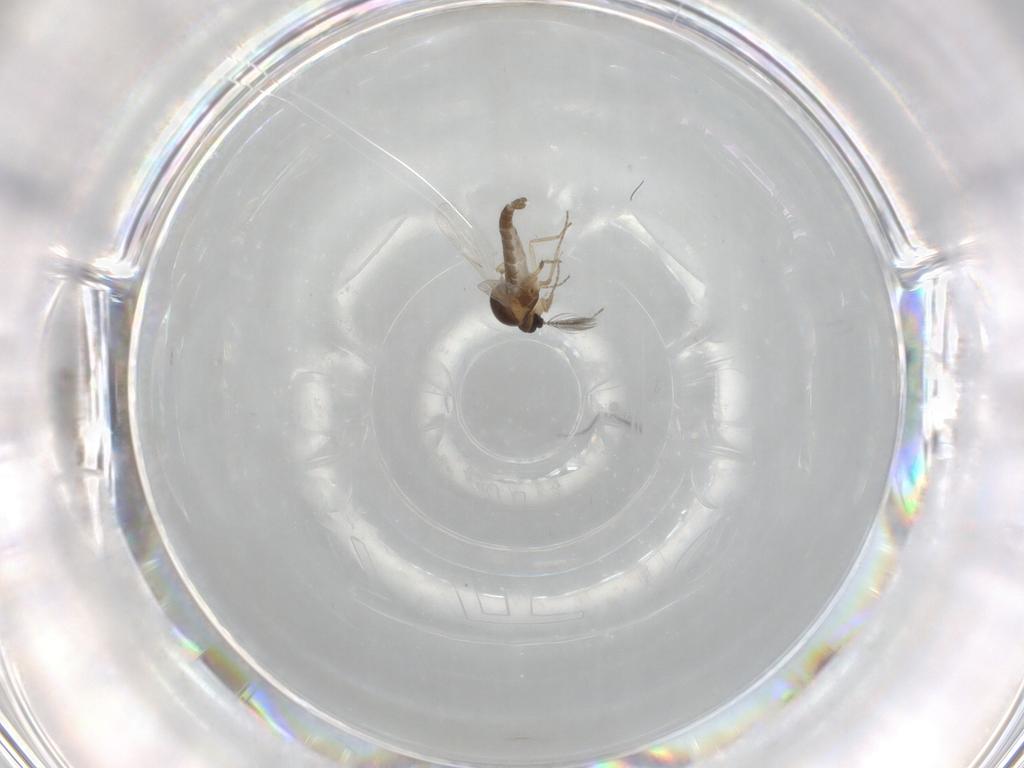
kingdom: Animalia
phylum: Arthropoda
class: Insecta
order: Diptera
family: Ceratopogonidae
